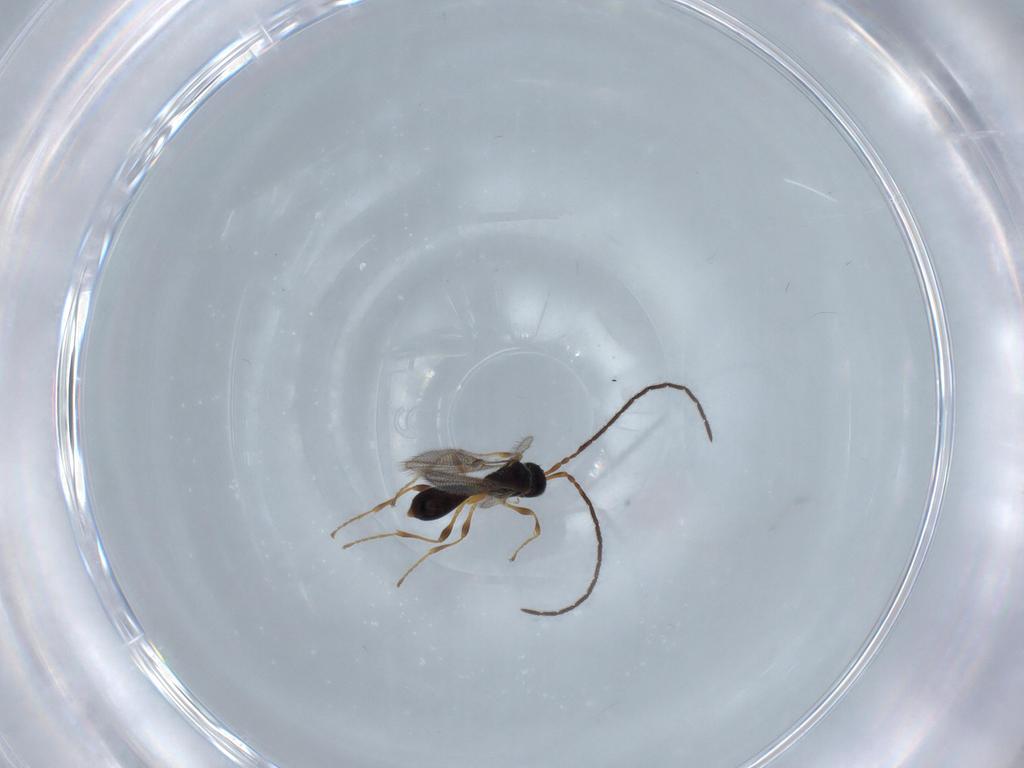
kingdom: Animalia
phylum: Arthropoda
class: Insecta
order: Hymenoptera
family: Diapriidae
